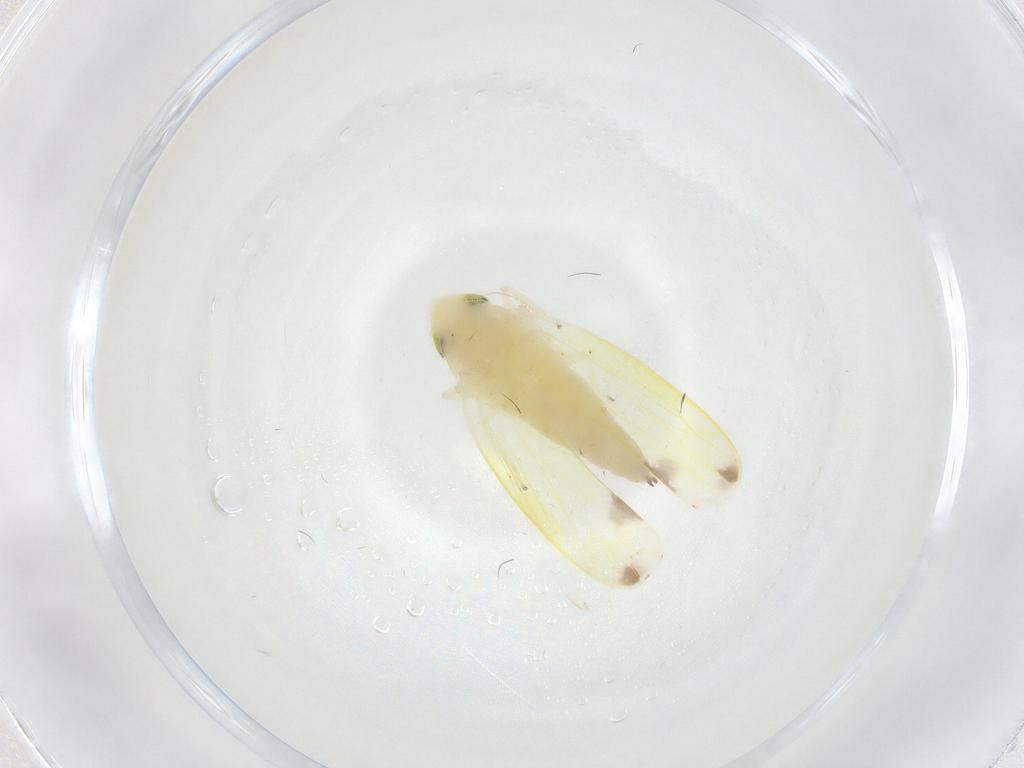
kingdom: Animalia
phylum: Arthropoda
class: Insecta
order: Hemiptera
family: Cicadellidae
